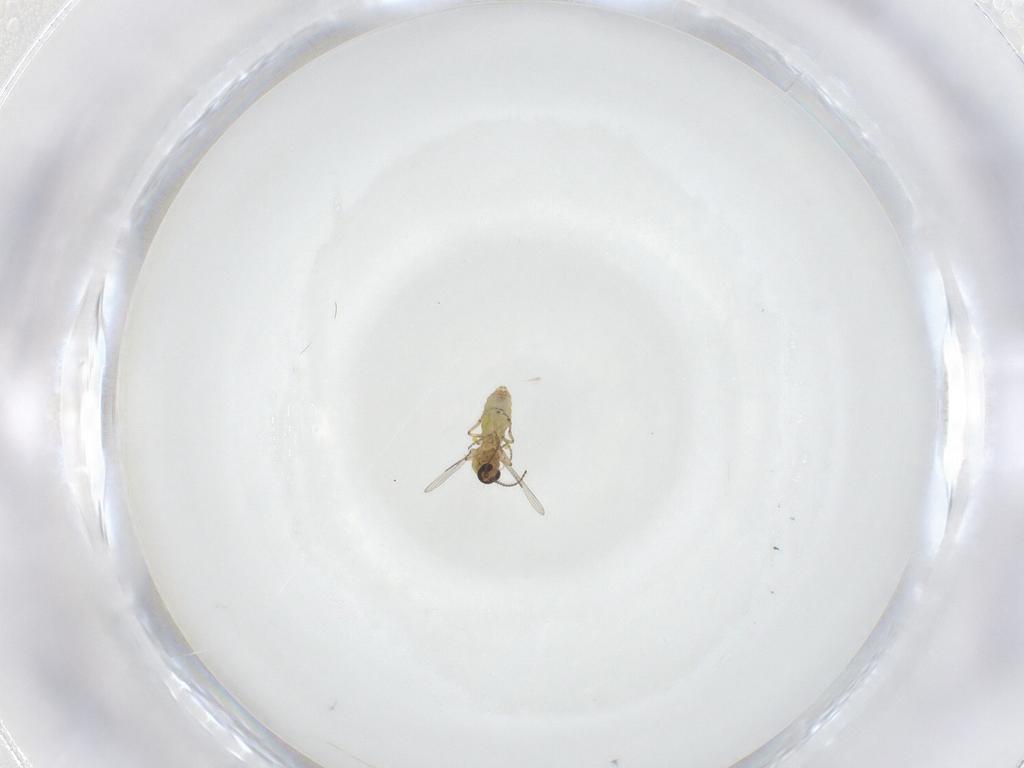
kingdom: Animalia
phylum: Arthropoda
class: Insecta
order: Diptera
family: Ceratopogonidae
